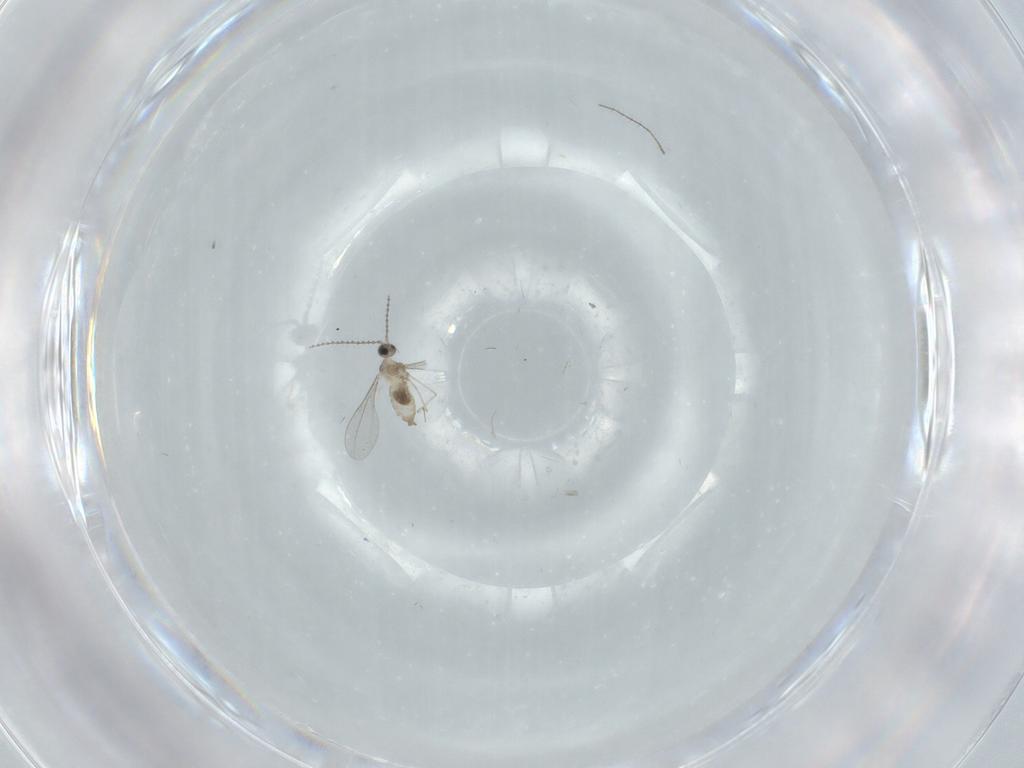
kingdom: Animalia
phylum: Arthropoda
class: Insecta
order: Diptera
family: Cecidomyiidae
